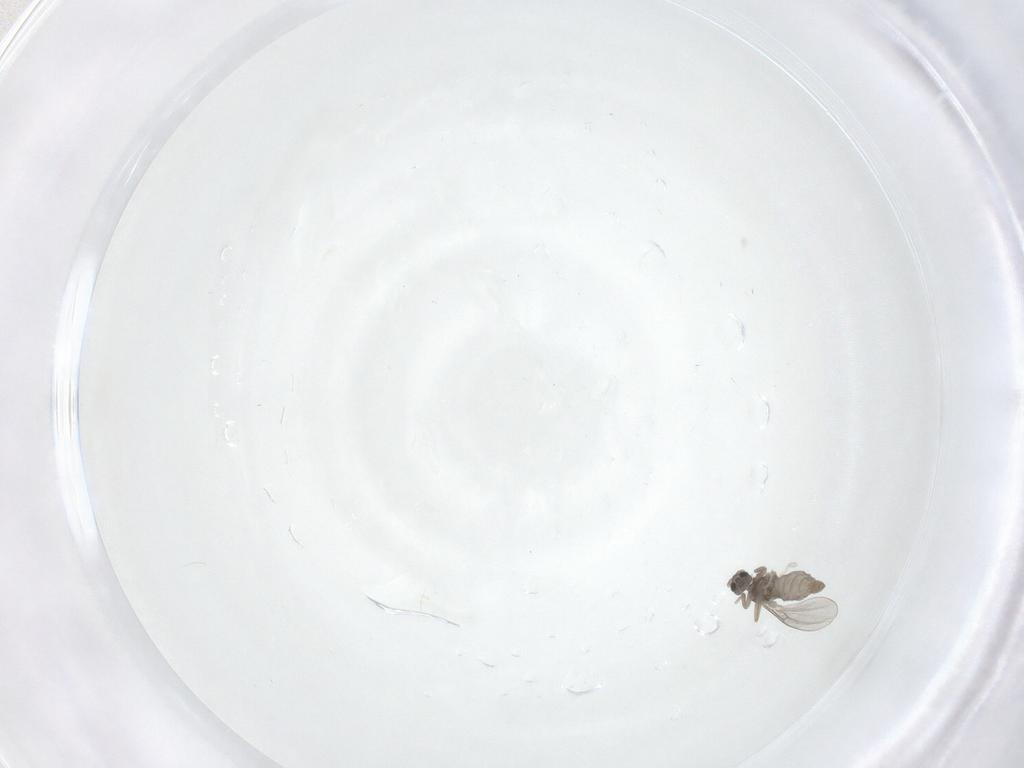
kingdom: Animalia
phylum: Arthropoda
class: Insecta
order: Diptera
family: Cecidomyiidae
